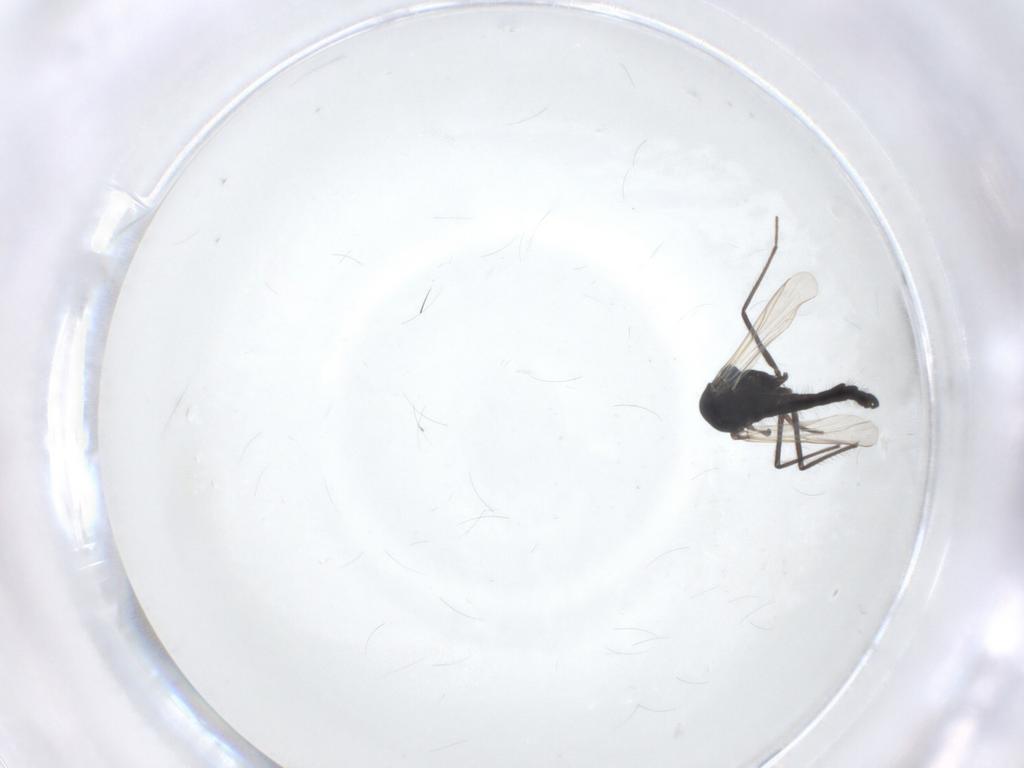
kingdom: Animalia
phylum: Arthropoda
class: Insecta
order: Diptera
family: Chironomidae
